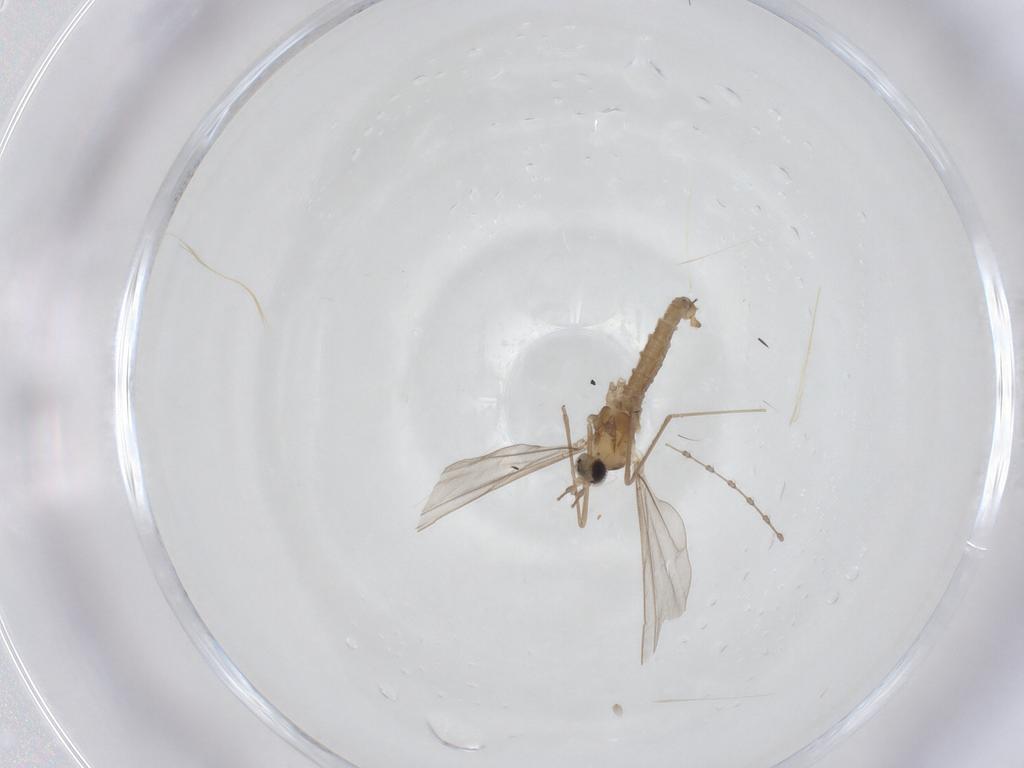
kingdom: Animalia
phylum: Arthropoda
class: Insecta
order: Diptera
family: Cecidomyiidae
